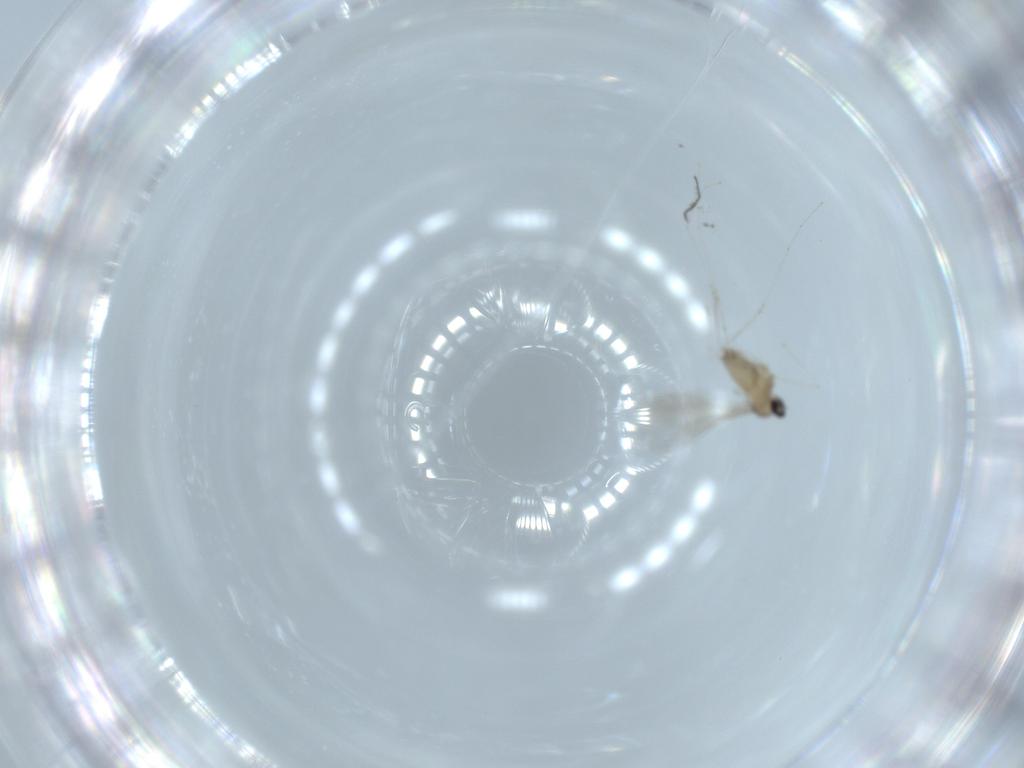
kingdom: Animalia
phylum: Arthropoda
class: Insecta
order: Diptera
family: Cecidomyiidae
